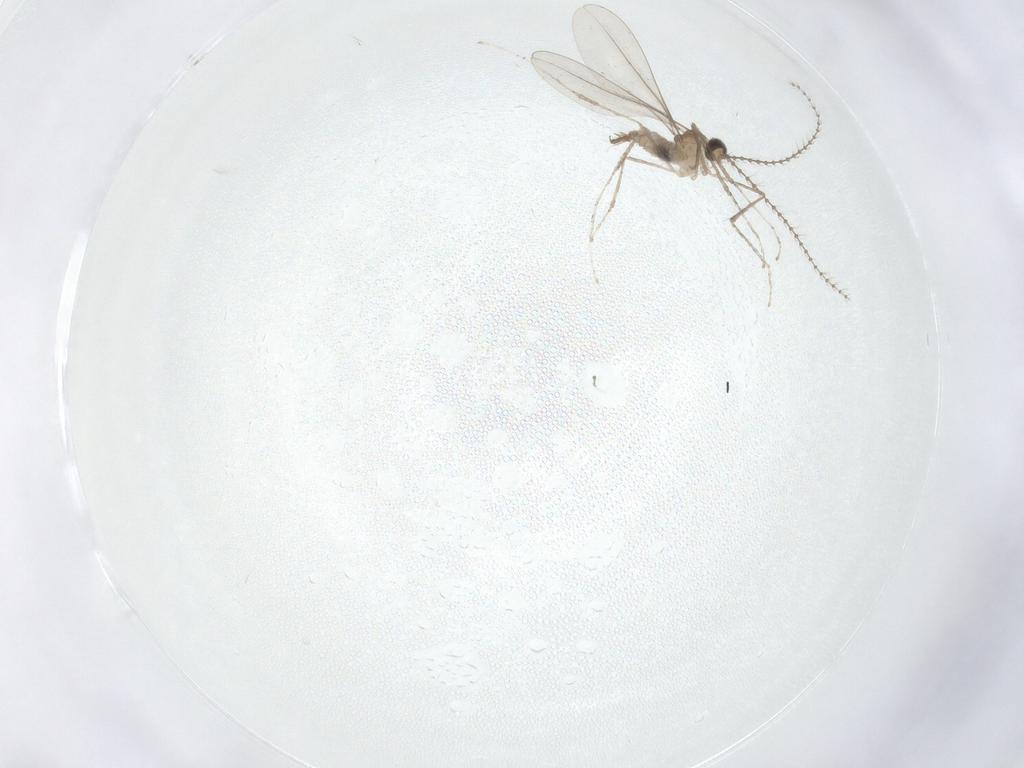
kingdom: Animalia
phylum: Arthropoda
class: Insecta
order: Diptera
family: Cecidomyiidae
